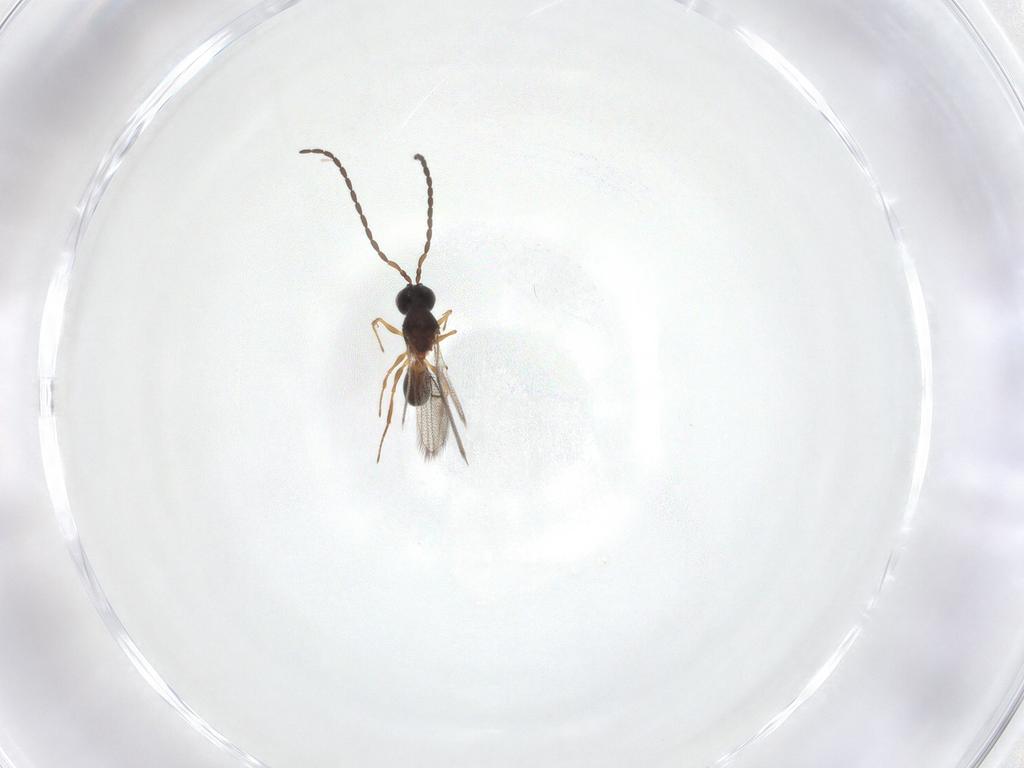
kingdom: Animalia
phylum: Arthropoda
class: Insecta
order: Hymenoptera
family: Figitidae
